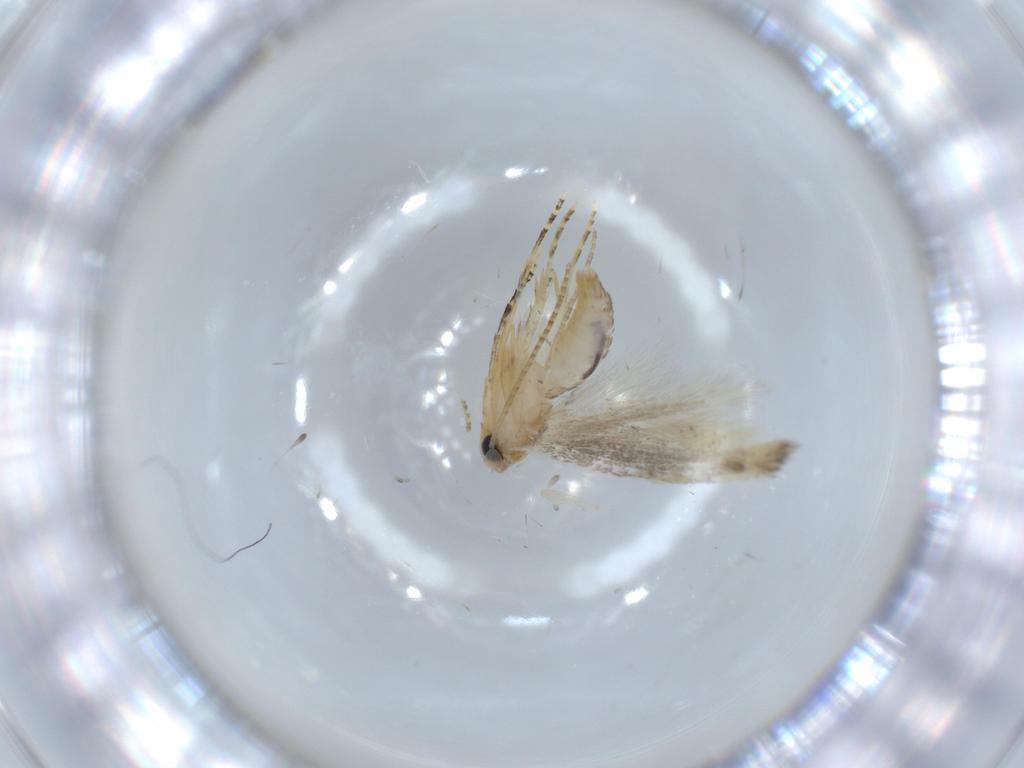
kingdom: Animalia
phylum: Arthropoda
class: Insecta
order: Lepidoptera
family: Bucculatricidae
